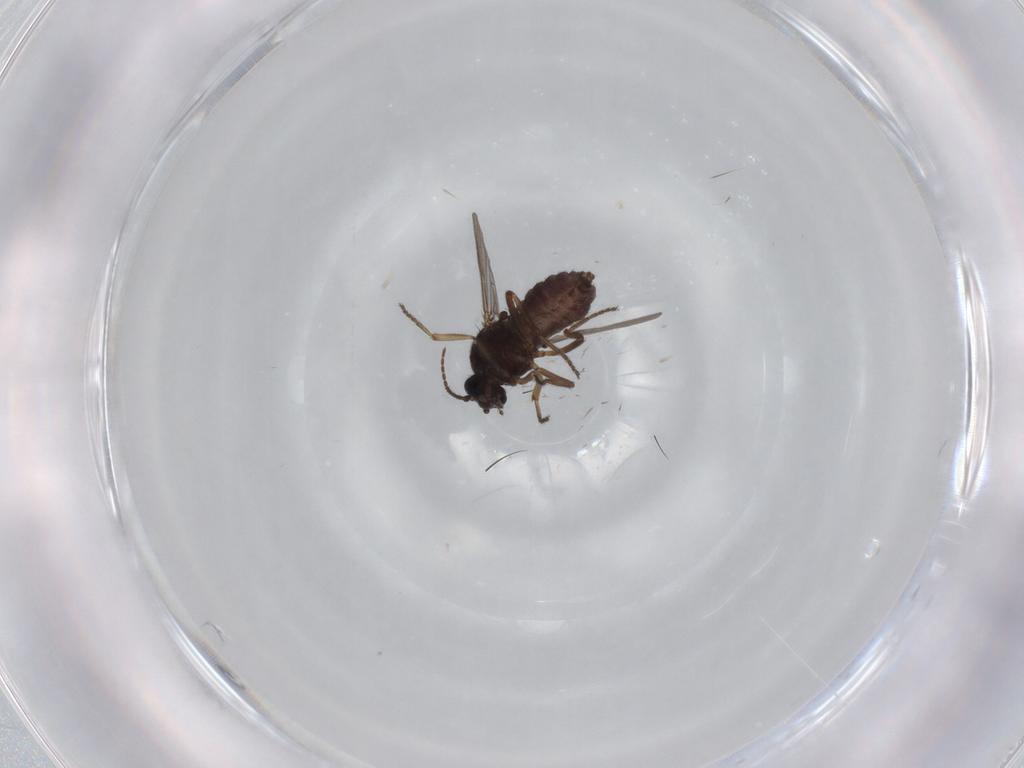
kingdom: Animalia
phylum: Arthropoda
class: Insecta
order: Diptera
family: Ceratopogonidae
